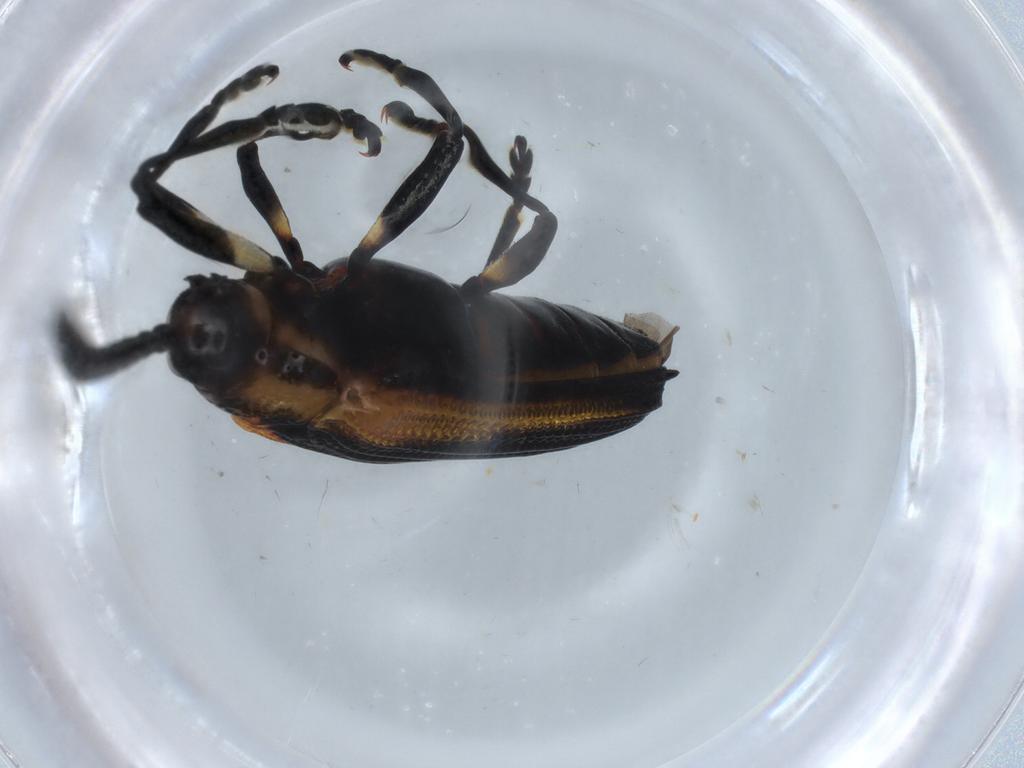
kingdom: Animalia
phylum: Arthropoda
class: Insecta
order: Coleoptera
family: Chrysomelidae
